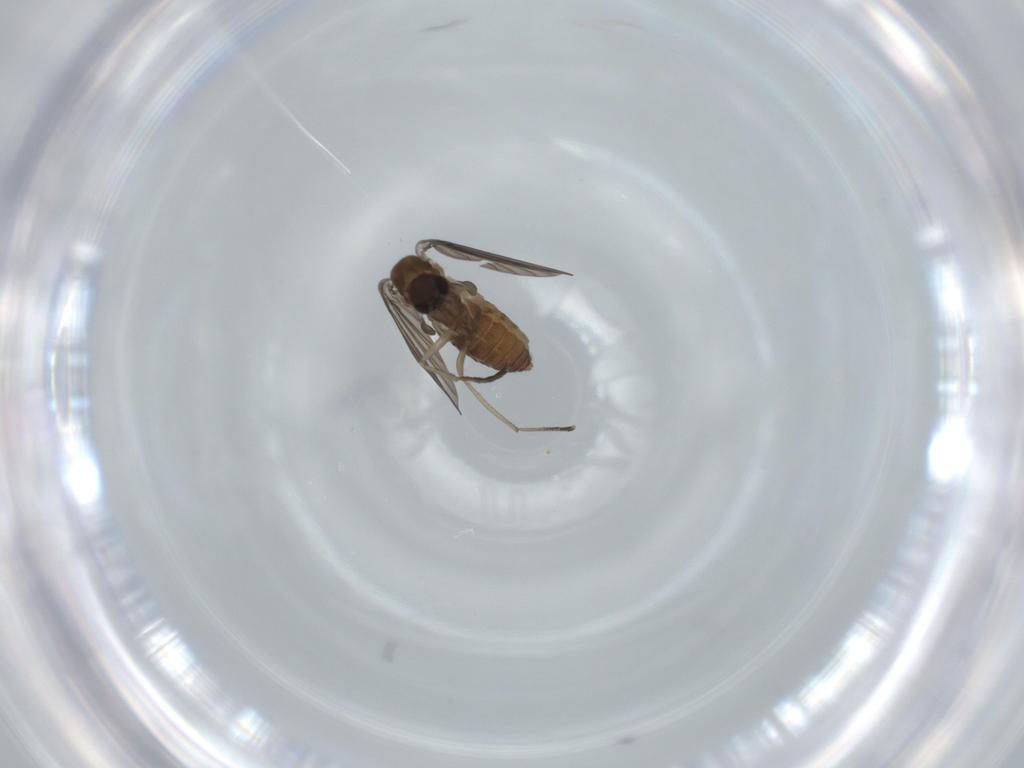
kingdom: Animalia
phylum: Arthropoda
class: Insecta
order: Diptera
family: Psychodidae
